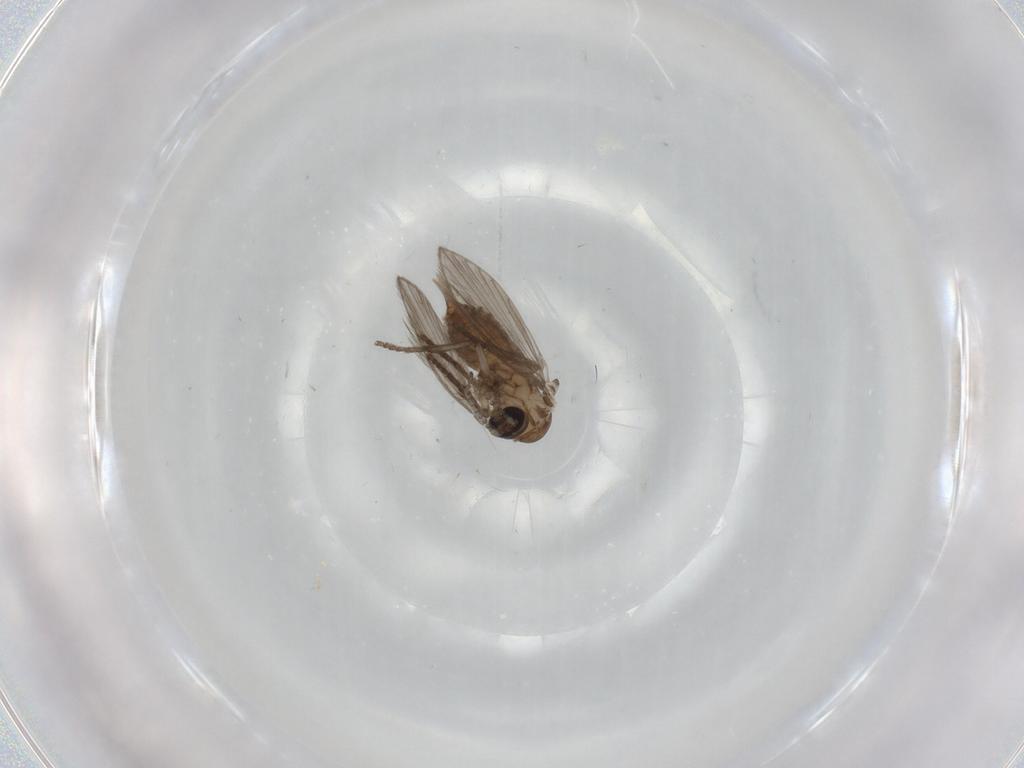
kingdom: Animalia
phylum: Arthropoda
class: Insecta
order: Diptera
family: Psychodidae
